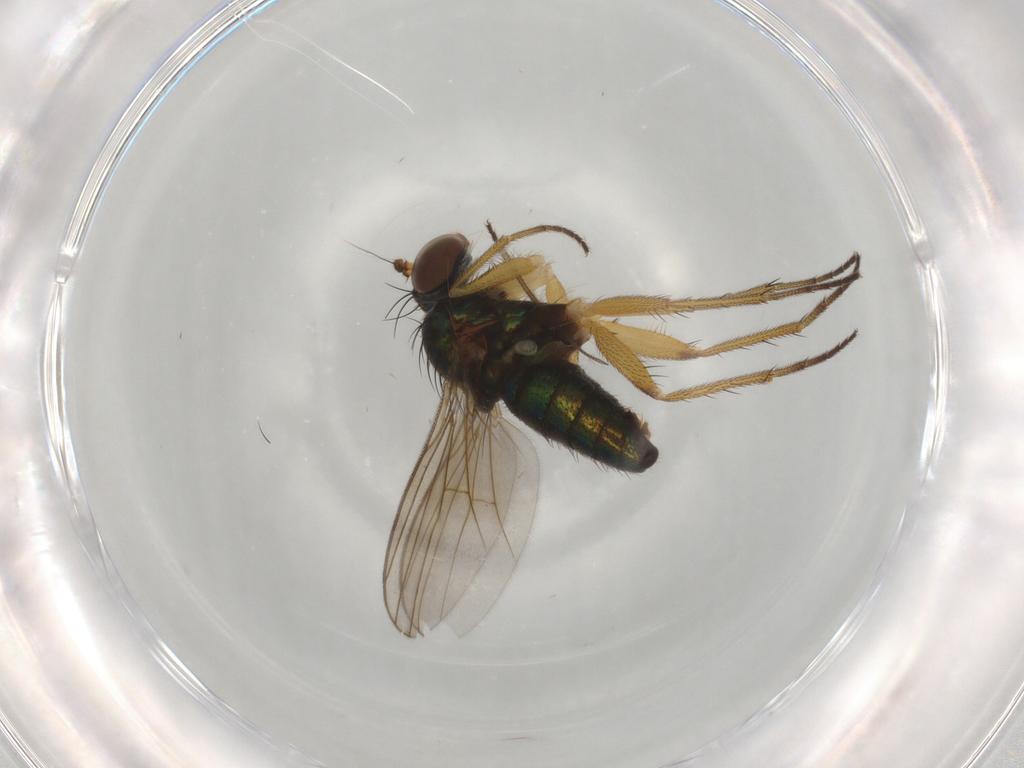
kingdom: Animalia
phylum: Arthropoda
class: Insecta
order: Diptera
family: Dolichopodidae
